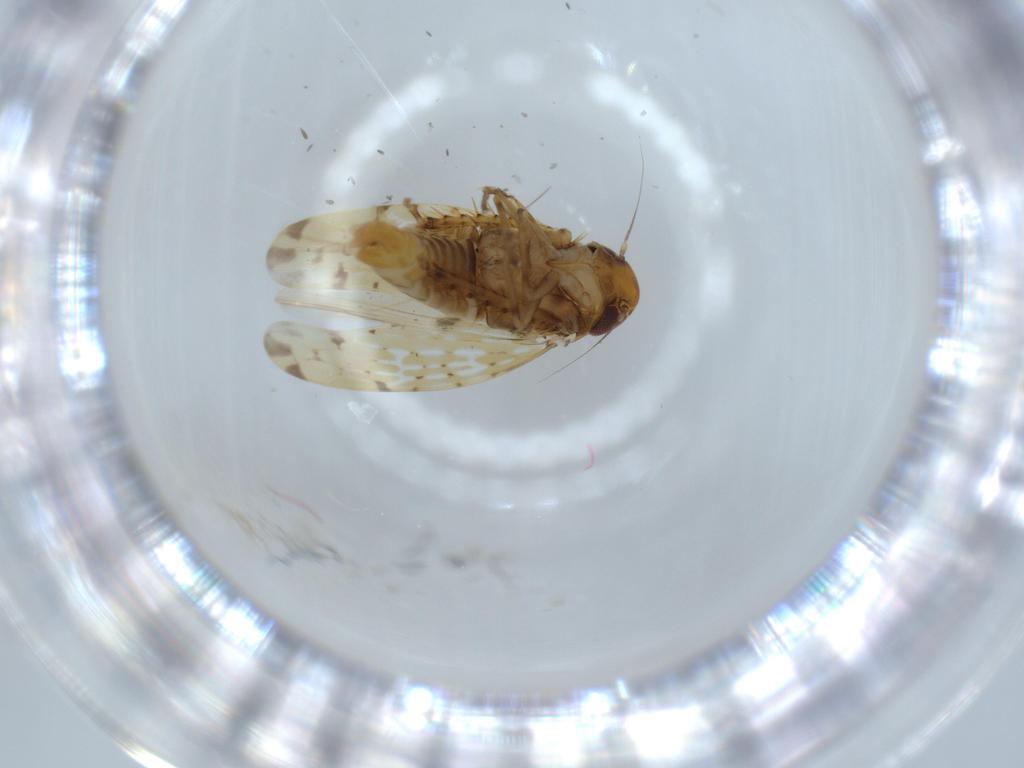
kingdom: Animalia
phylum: Arthropoda
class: Insecta
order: Hemiptera
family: Cicadellidae
